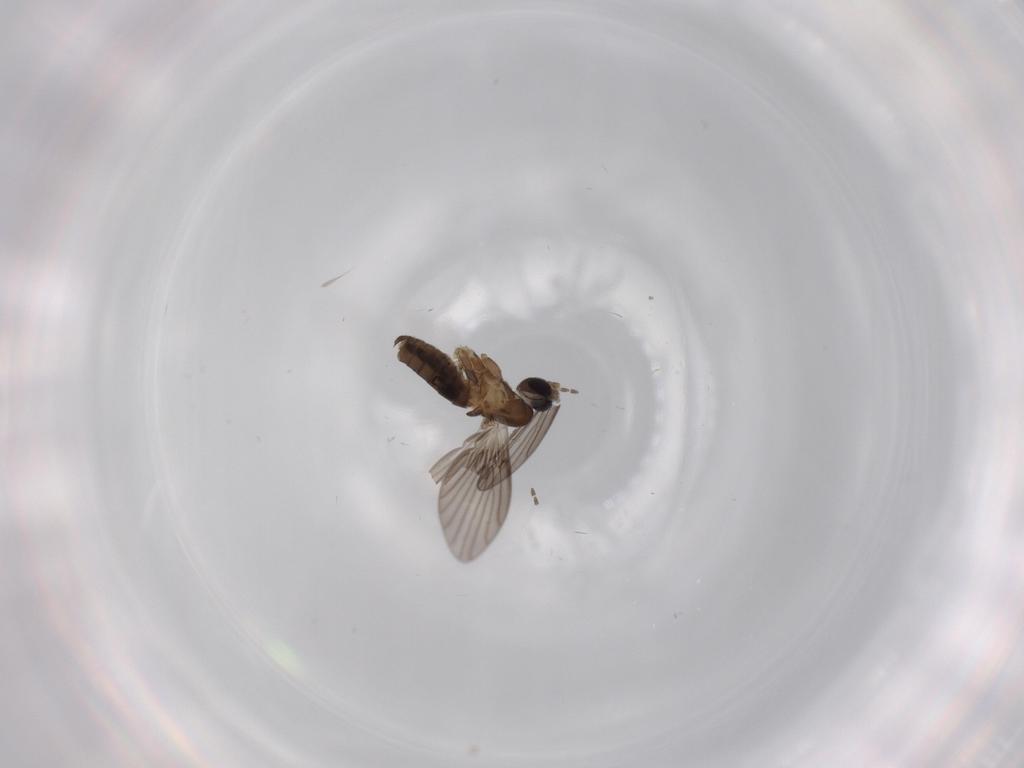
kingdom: Animalia
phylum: Arthropoda
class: Insecta
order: Diptera
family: Psychodidae
